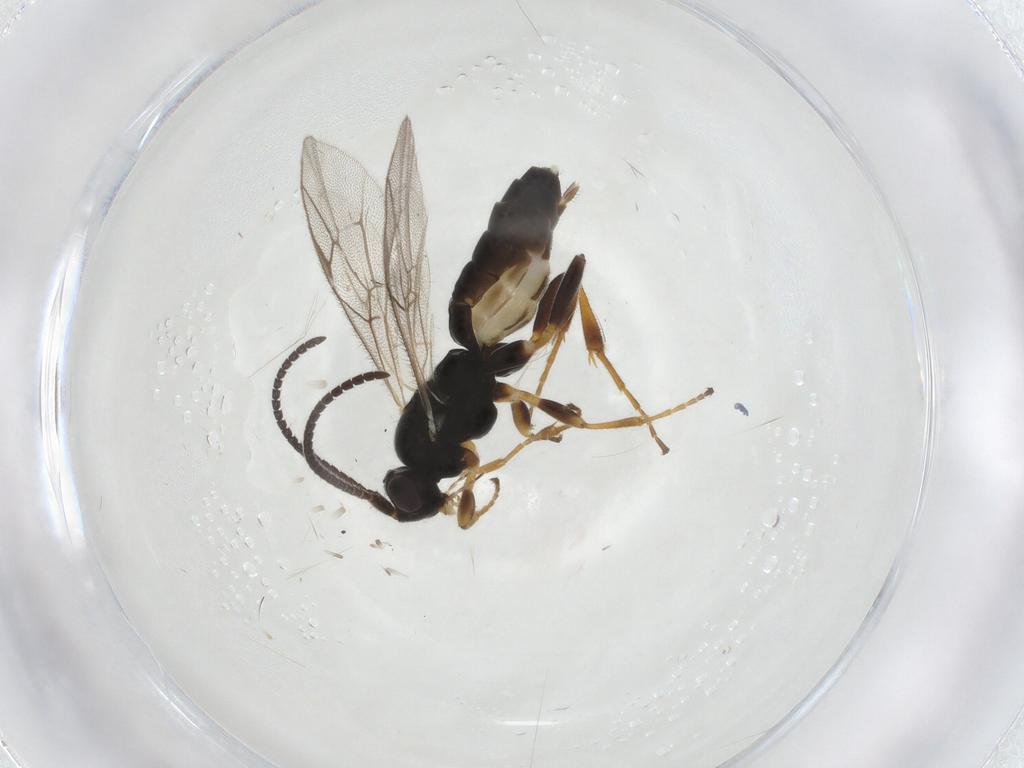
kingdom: Animalia
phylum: Arthropoda
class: Insecta
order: Hymenoptera
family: Ichneumonidae
